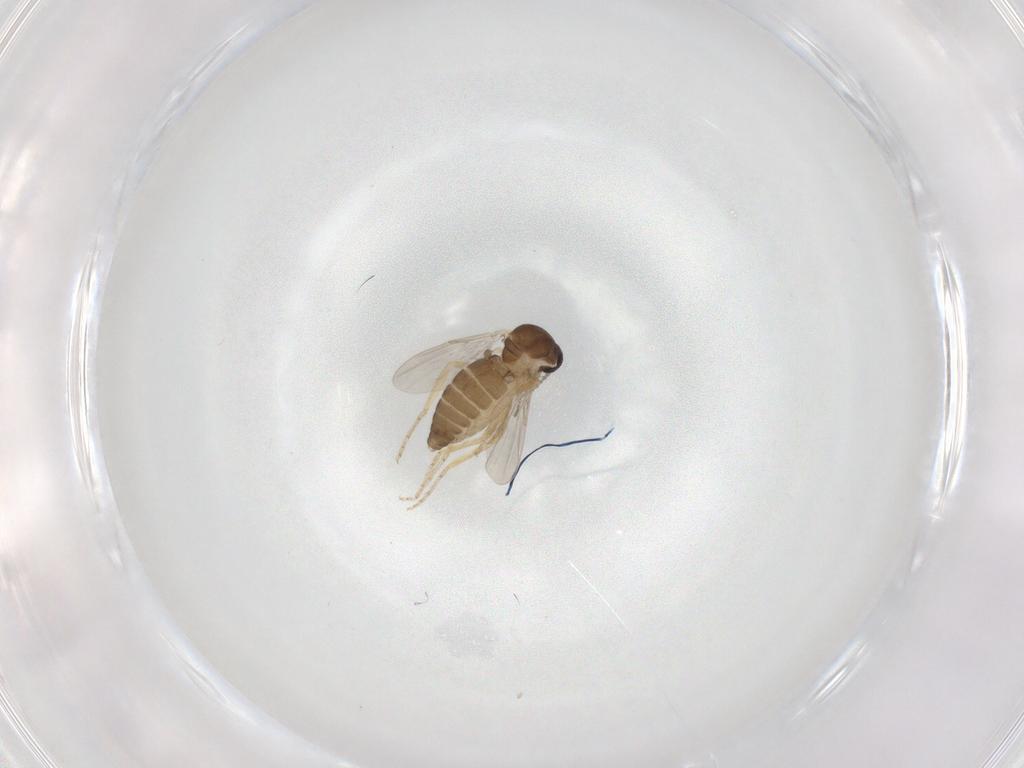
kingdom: Animalia
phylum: Arthropoda
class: Insecta
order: Diptera
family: Ceratopogonidae
